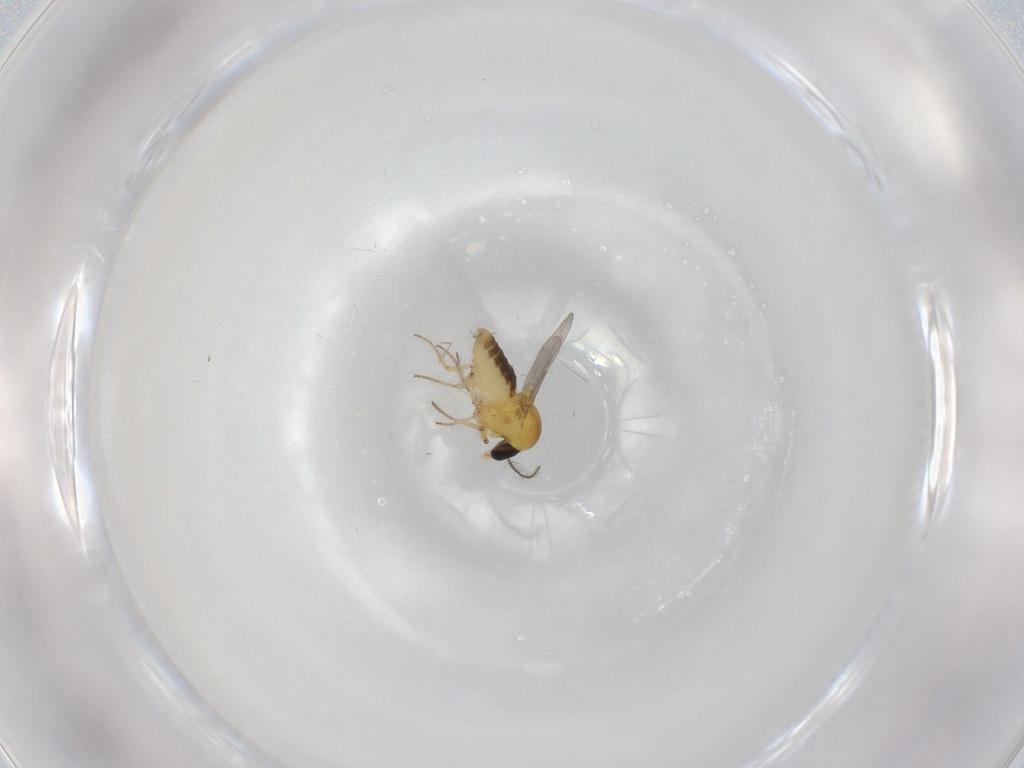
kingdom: Animalia
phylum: Arthropoda
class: Insecta
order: Diptera
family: Ceratopogonidae
